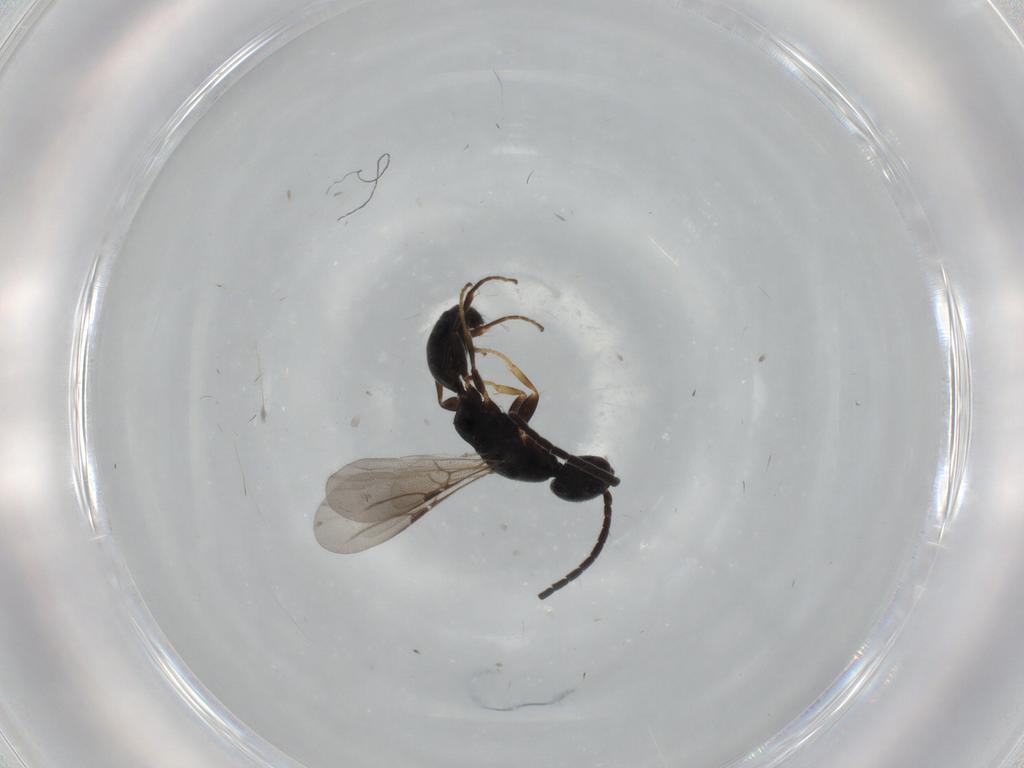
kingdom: Animalia
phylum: Arthropoda
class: Insecta
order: Hymenoptera
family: Bethylidae
